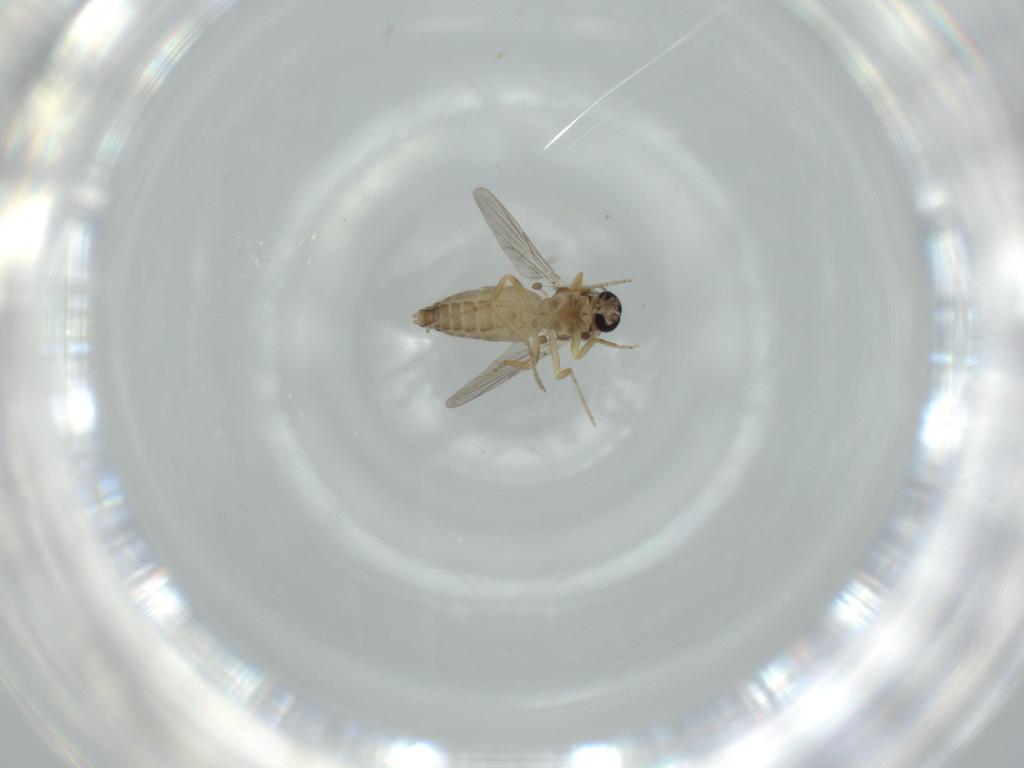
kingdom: Animalia
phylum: Arthropoda
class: Insecta
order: Diptera
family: Ceratopogonidae
